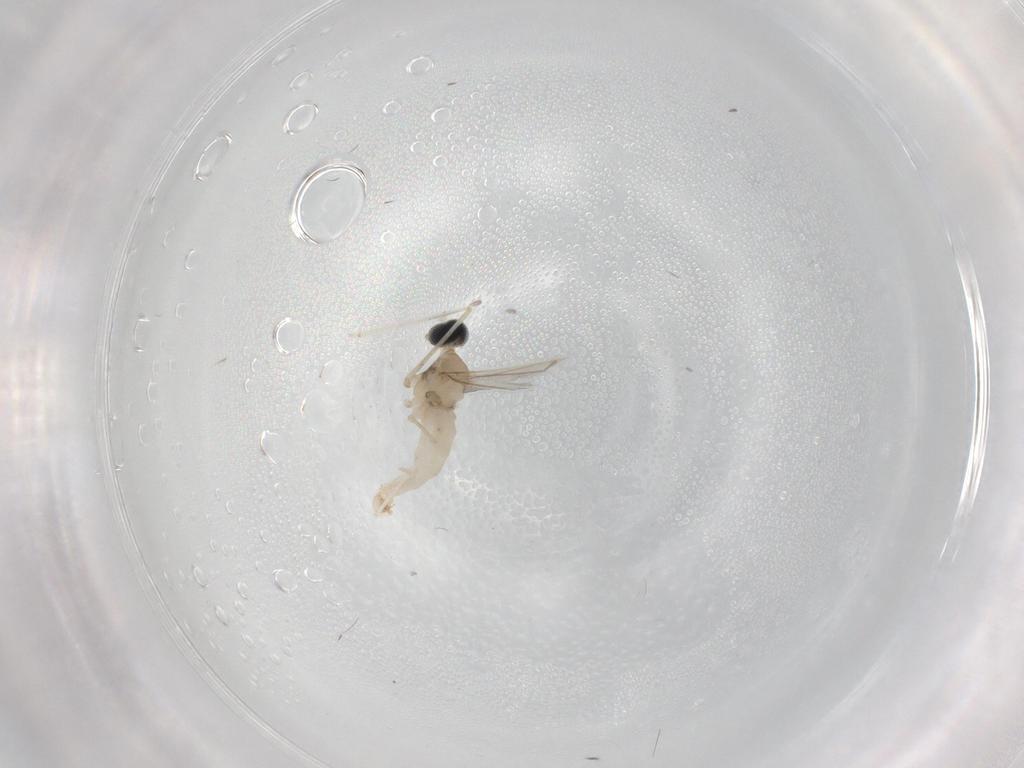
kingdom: Animalia
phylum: Arthropoda
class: Insecta
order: Diptera
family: Cecidomyiidae
